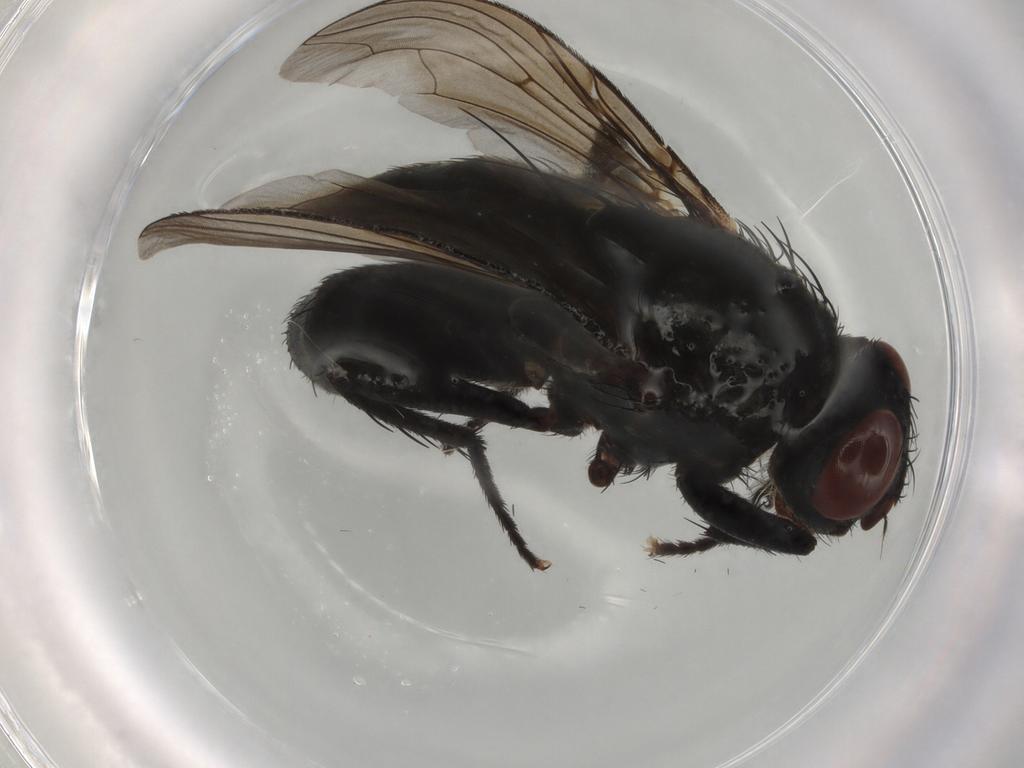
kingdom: Animalia
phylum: Arthropoda
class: Insecta
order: Diptera
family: Sarcophagidae
